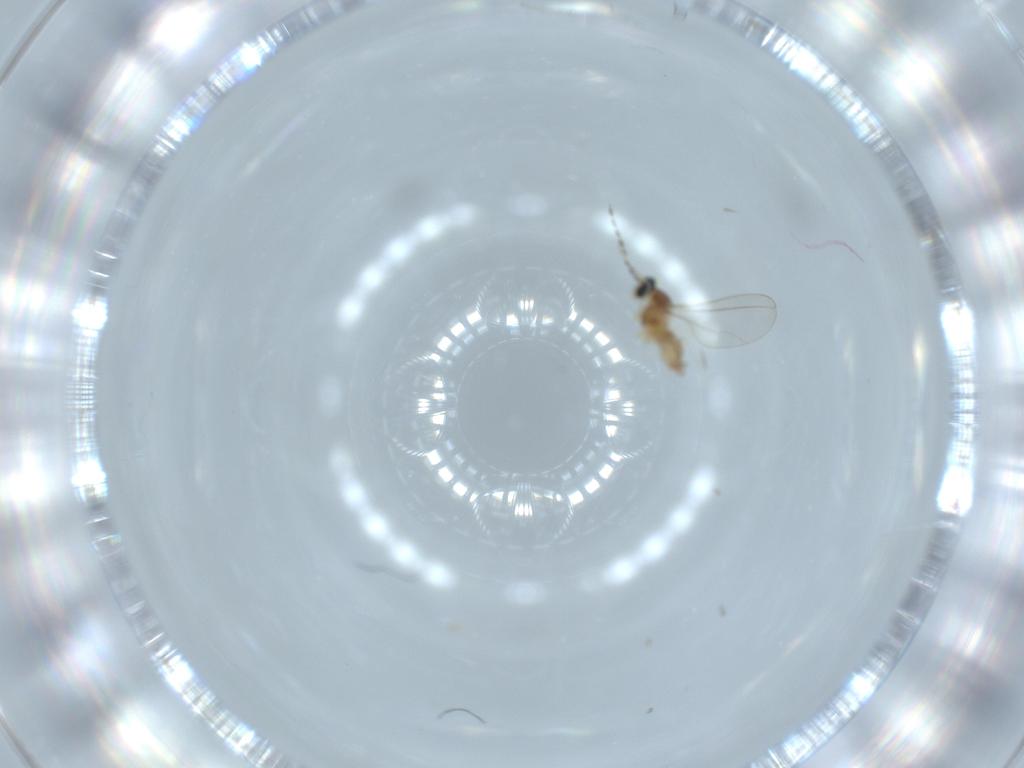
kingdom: Animalia
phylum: Arthropoda
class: Insecta
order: Diptera
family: Cecidomyiidae
